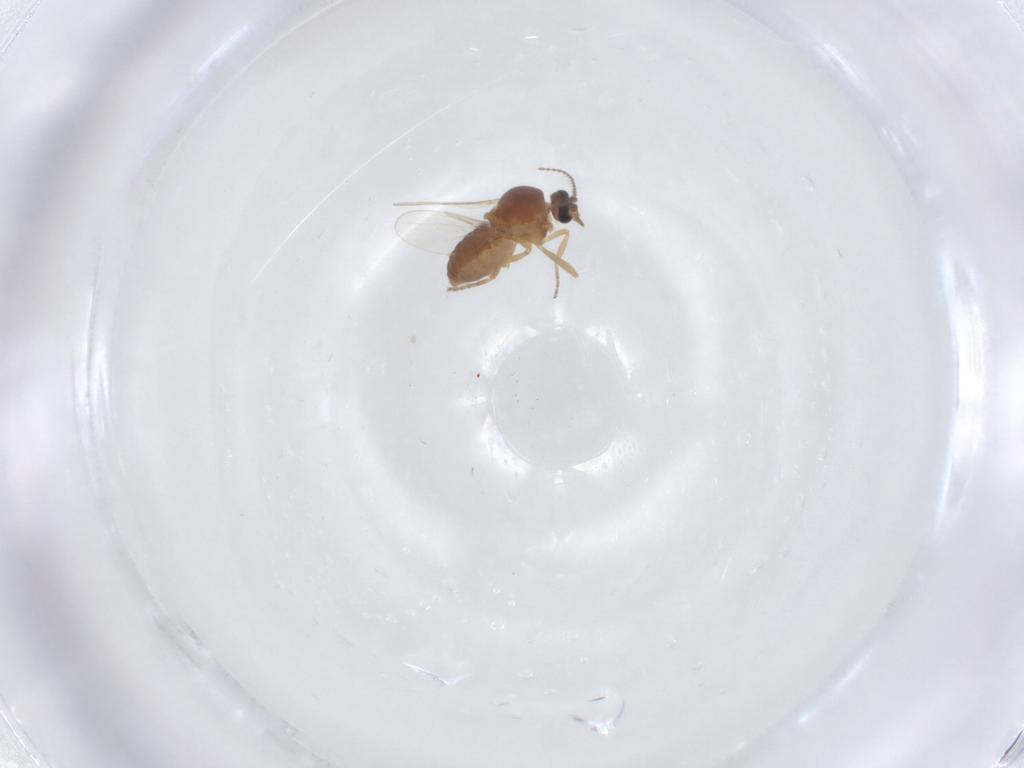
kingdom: Animalia
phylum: Arthropoda
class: Insecta
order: Diptera
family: Ceratopogonidae
